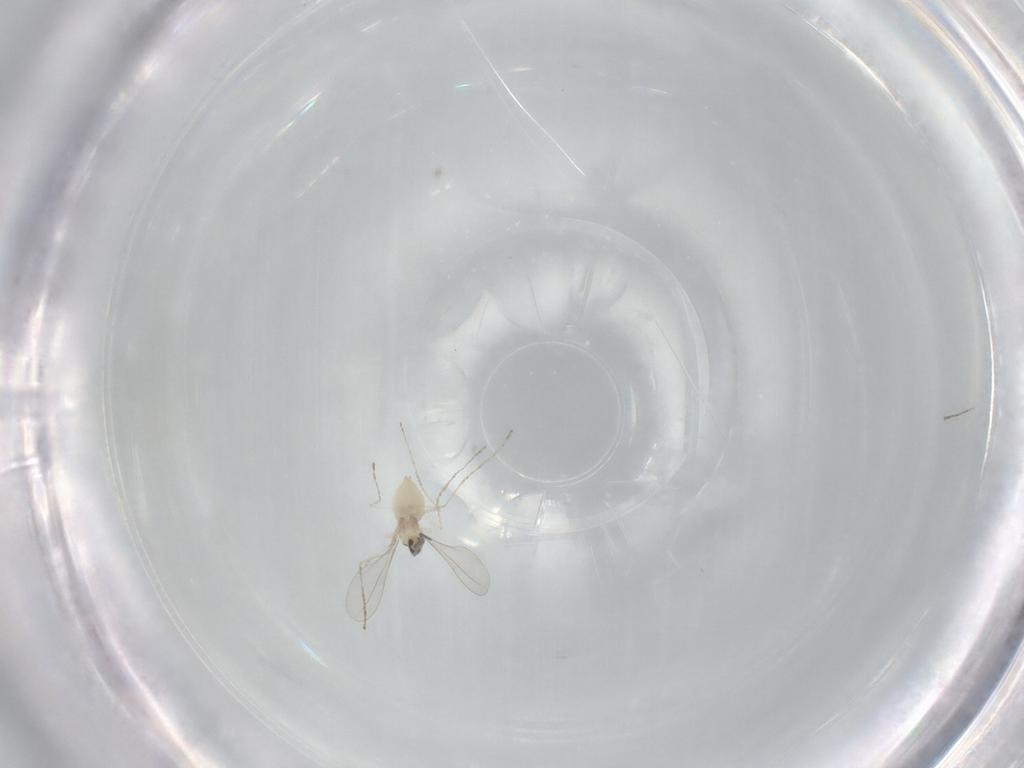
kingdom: Animalia
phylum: Arthropoda
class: Insecta
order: Diptera
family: Cecidomyiidae
